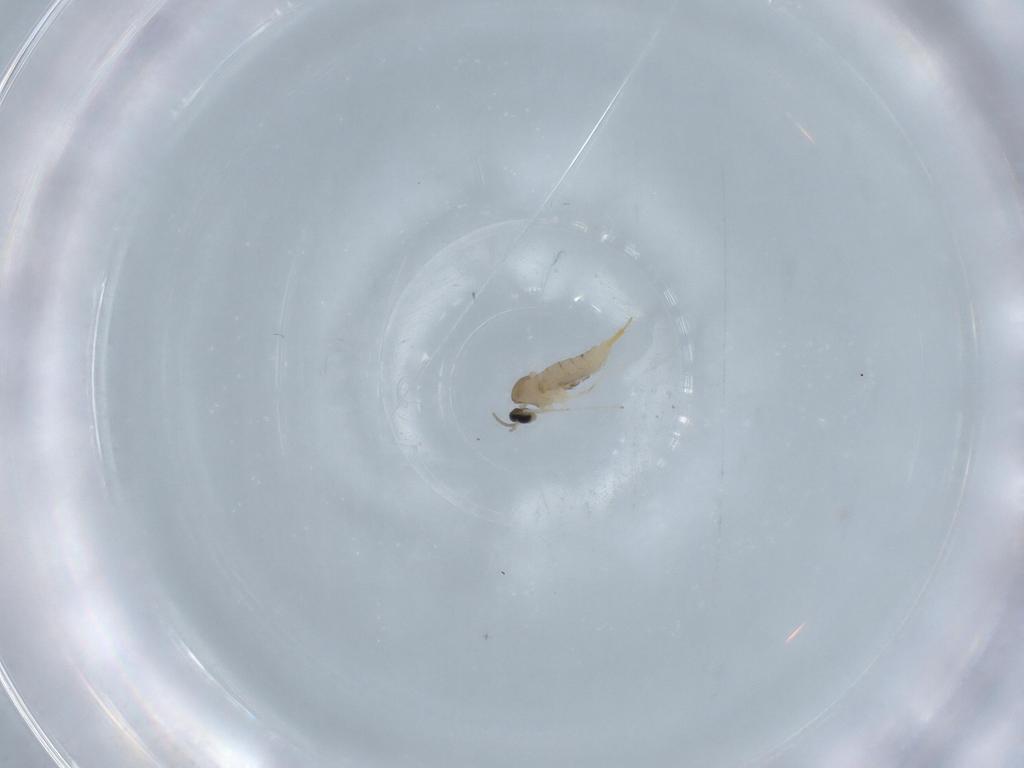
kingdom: Animalia
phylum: Arthropoda
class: Insecta
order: Diptera
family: Cecidomyiidae
